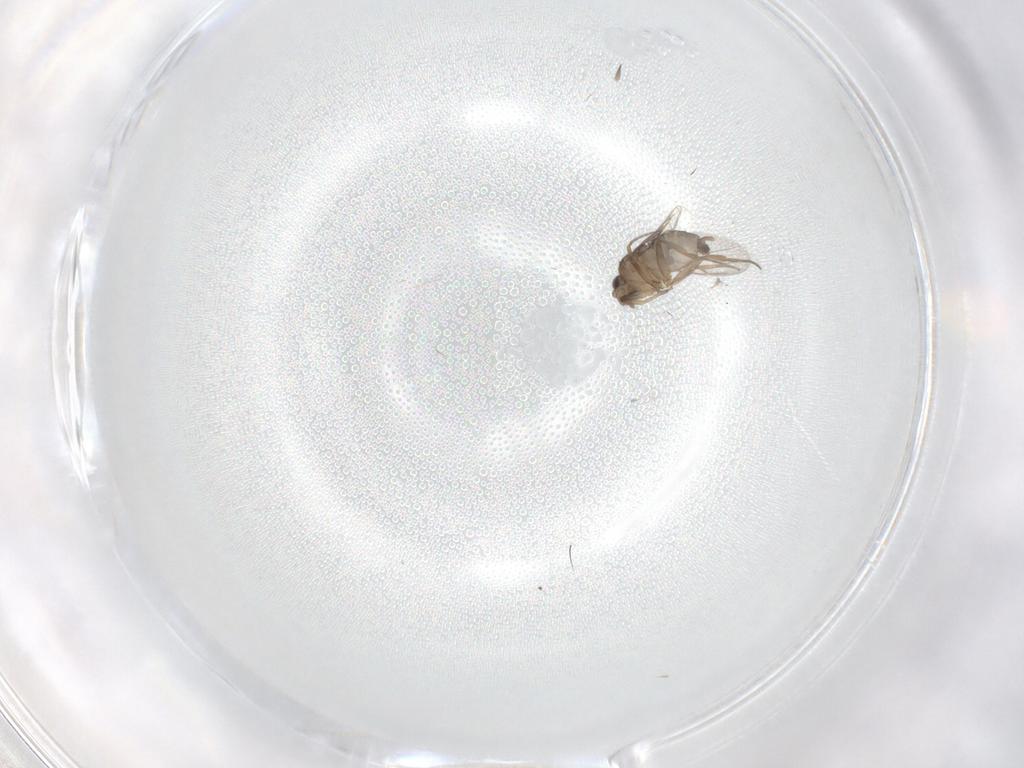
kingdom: Animalia
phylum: Arthropoda
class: Insecta
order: Diptera
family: Phoridae
